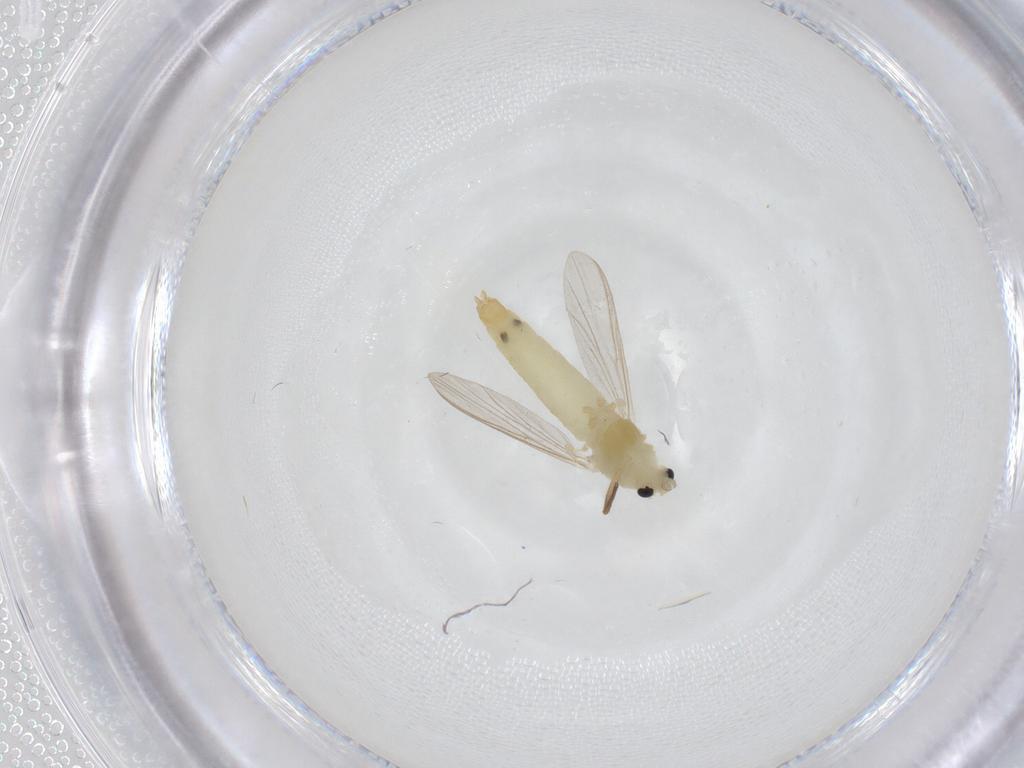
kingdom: Animalia
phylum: Arthropoda
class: Insecta
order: Diptera
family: Chironomidae
